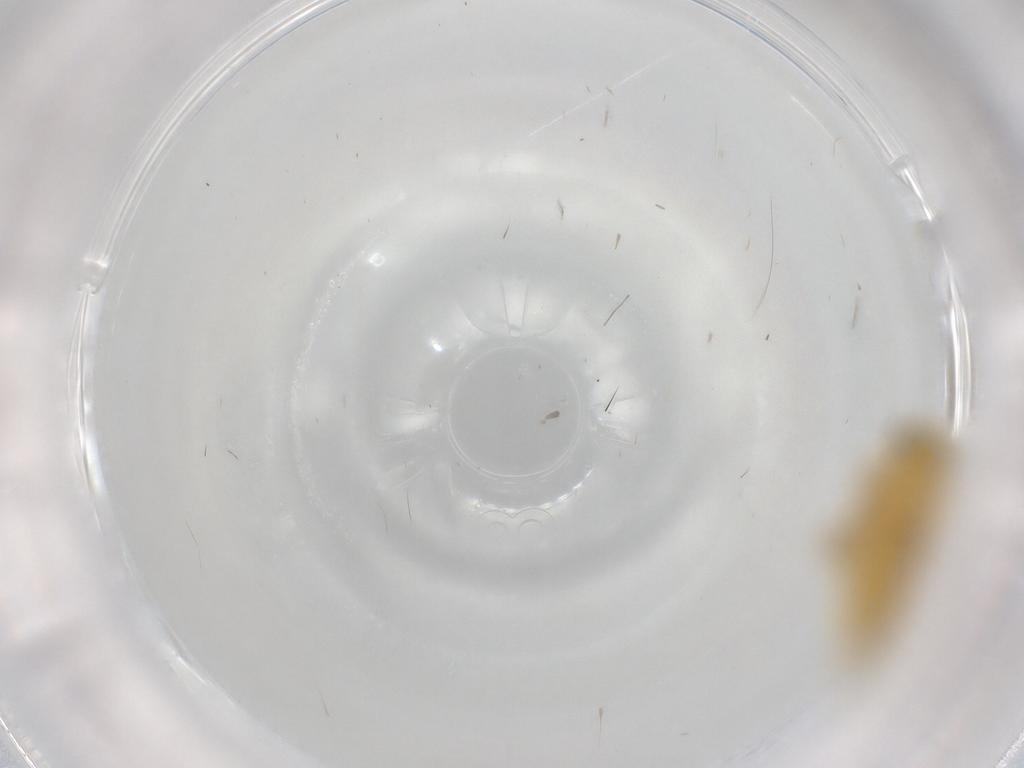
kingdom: Animalia
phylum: Arthropoda
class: Insecta
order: Hemiptera
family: Cicadellidae
